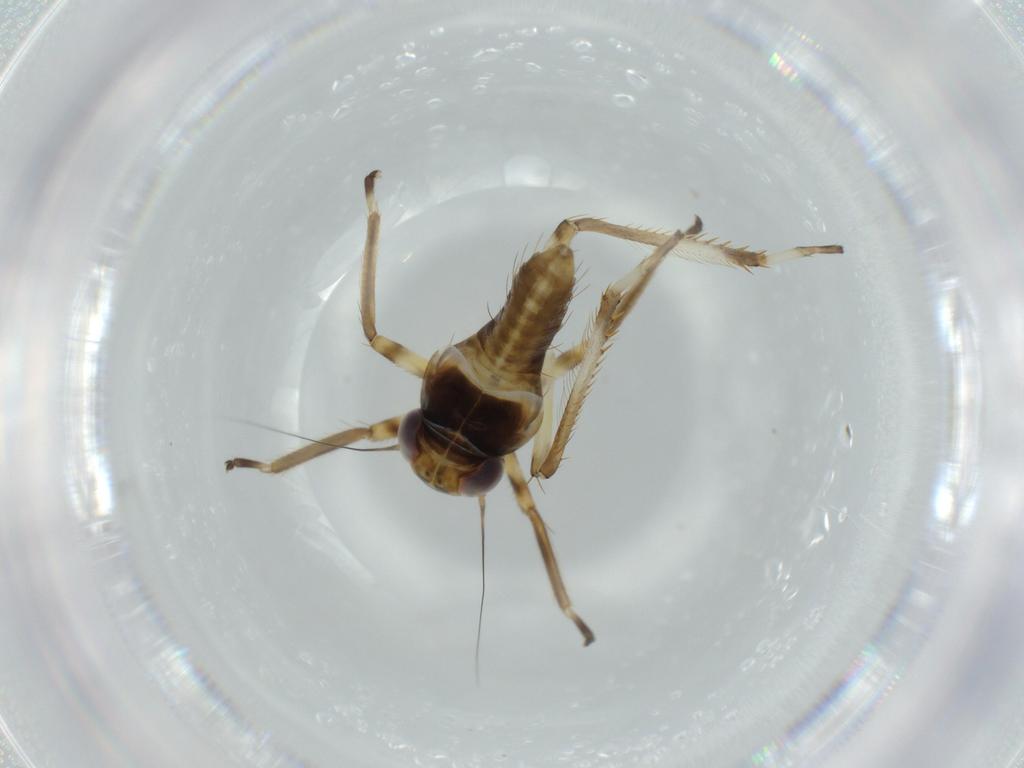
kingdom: Animalia
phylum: Arthropoda
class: Insecta
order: Hemiptera
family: Cicadellidae
